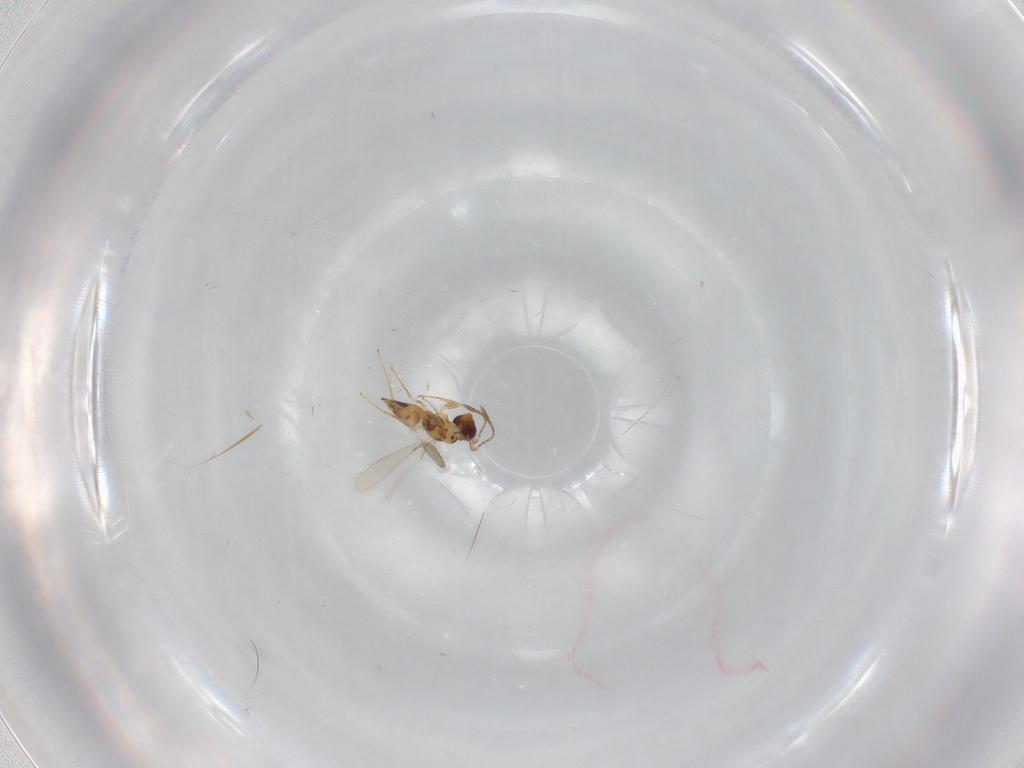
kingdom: Animalia
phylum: Arthropoda
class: Insecta
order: Hymenoptera
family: Mymaridae
